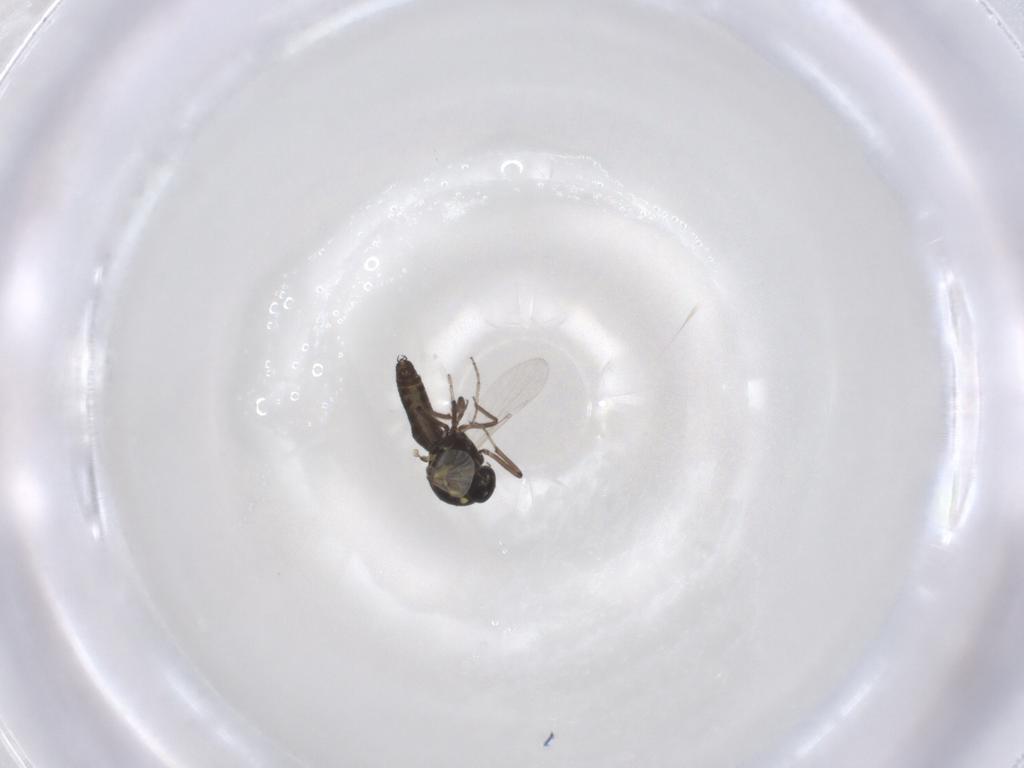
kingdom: Animalia
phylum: Arthropoda
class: Insecta
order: Diptera
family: Ceratopogonidae
